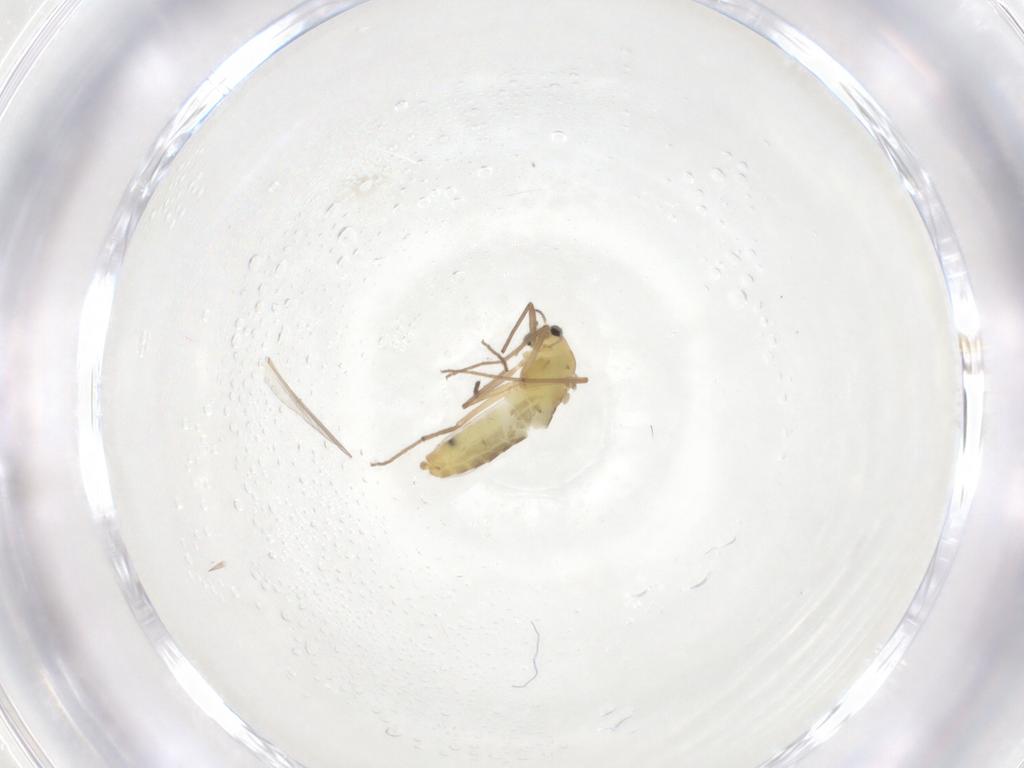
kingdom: Animalia
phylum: Arthropoda
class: Insecta
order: Diptera
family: Chironomidae
